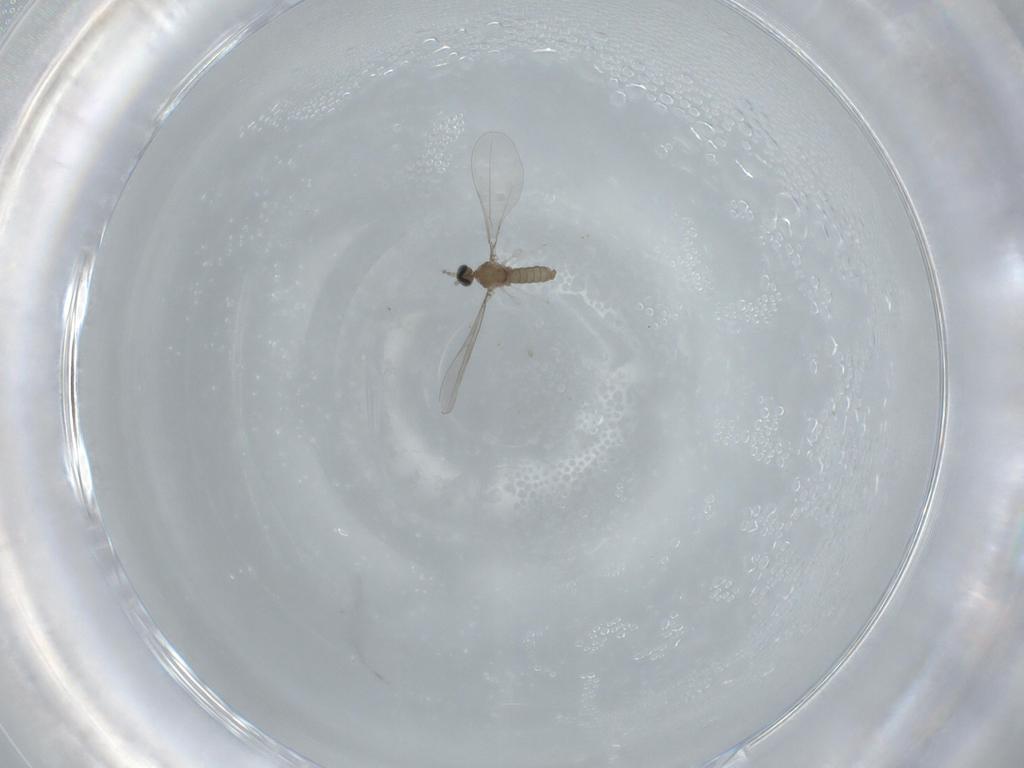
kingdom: Animalia
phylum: Arthropoda
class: Insecta
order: Diptera
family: Cecidomyiidae
